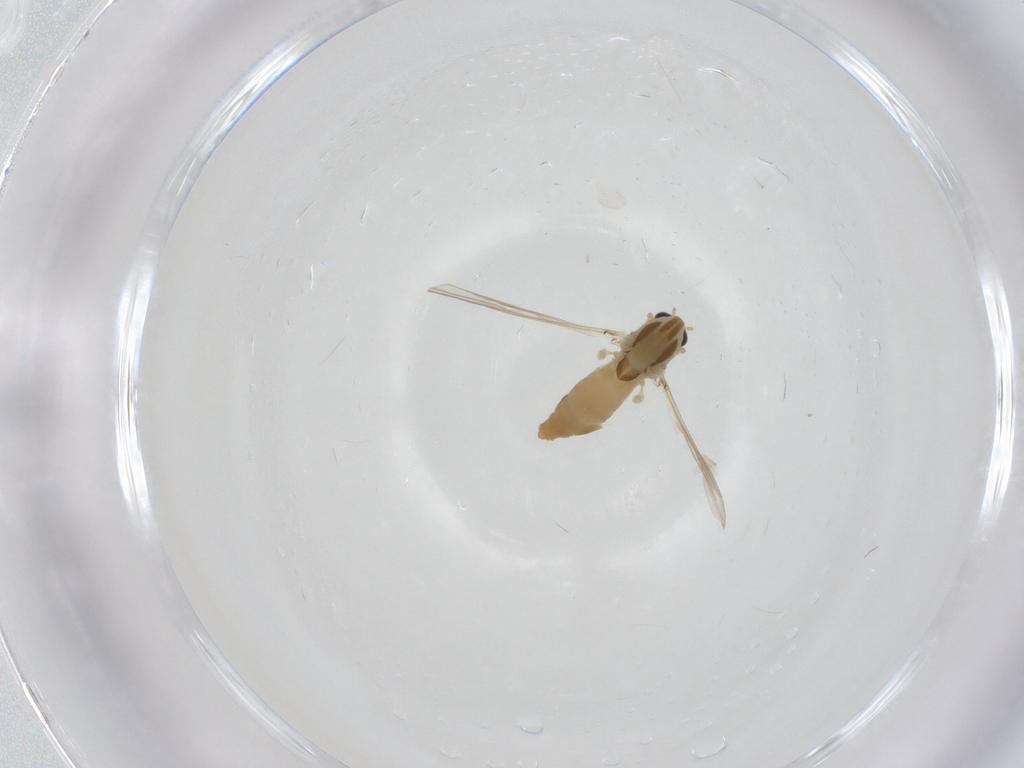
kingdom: Animalia
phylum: Arthropoda
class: Insecta
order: Diptera
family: Chironomidae
